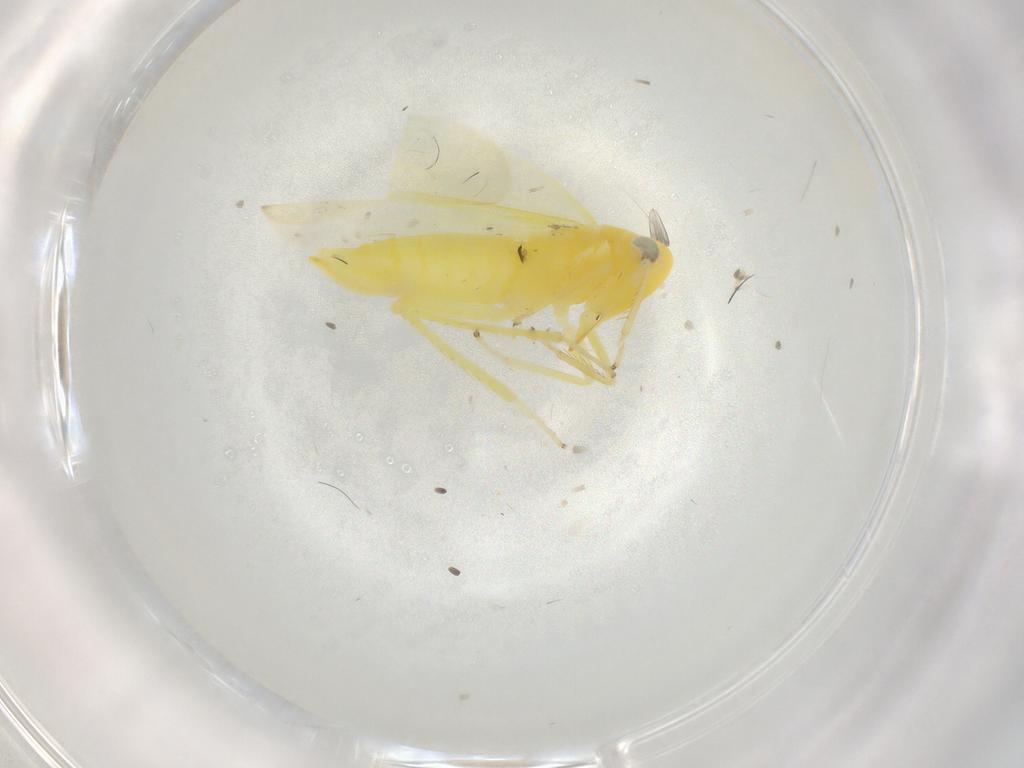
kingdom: Animalia
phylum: Arthropoda
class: Insecta
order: Hemiptera
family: Cicadellidae
